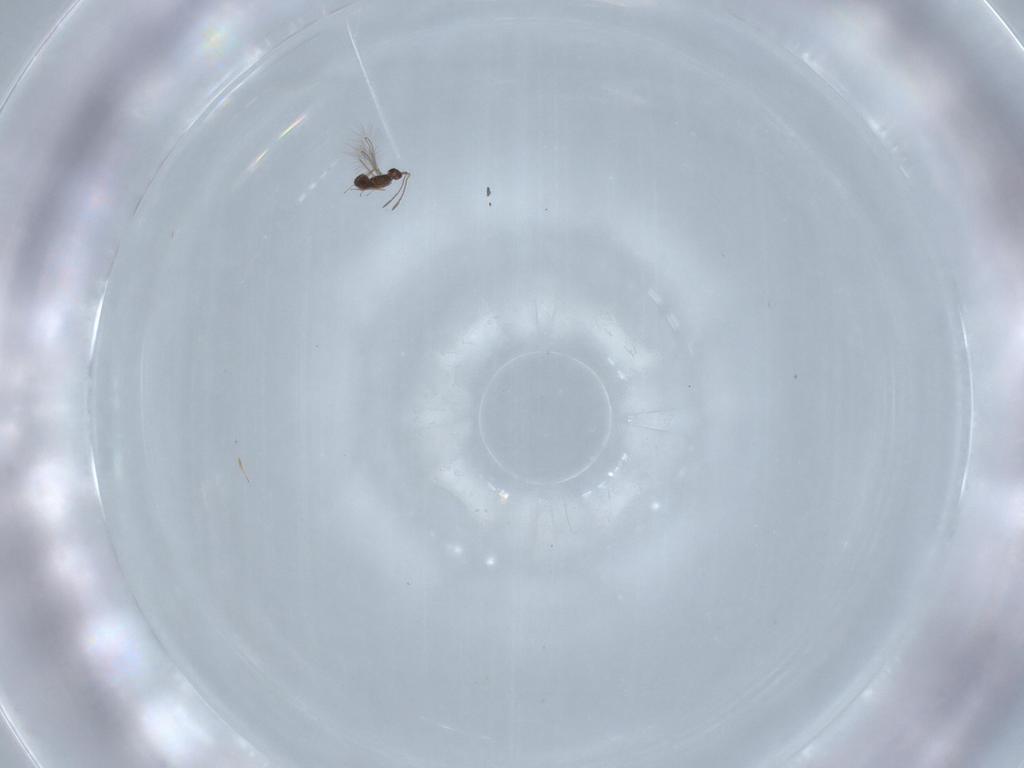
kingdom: Animalia
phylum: Arthropoda
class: Insecta
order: Hymenoptera
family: Mymaridae
